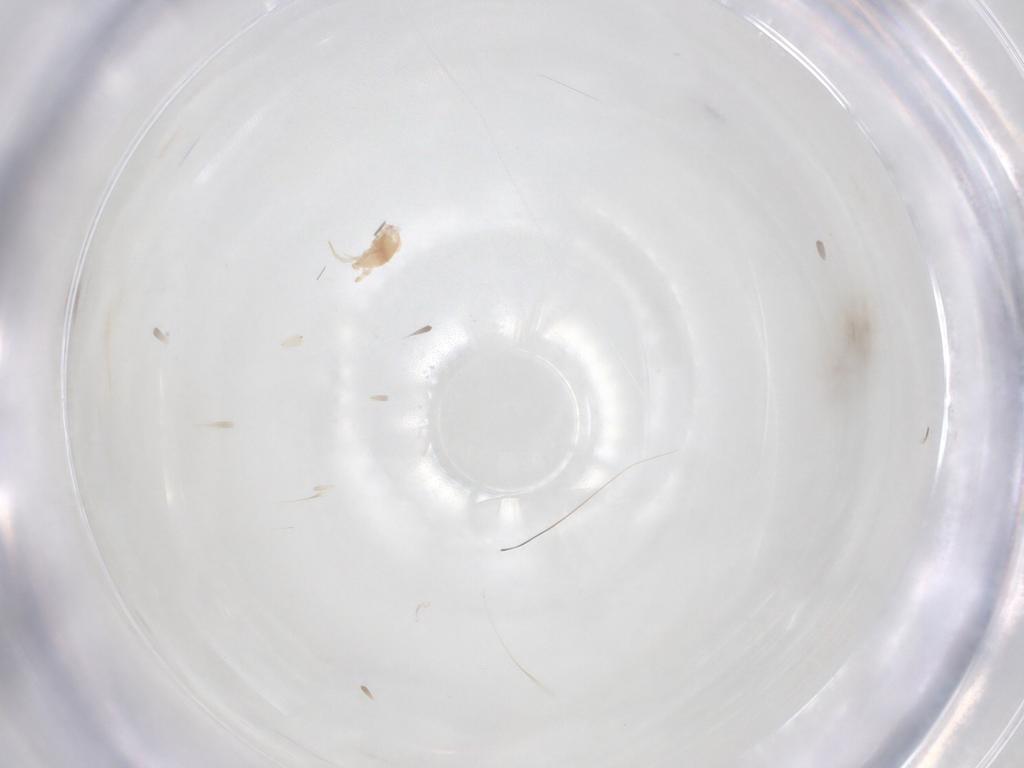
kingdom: Animalia
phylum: Arthropoda
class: Arachnida
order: Mesostigmata
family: Phytoseiidae
